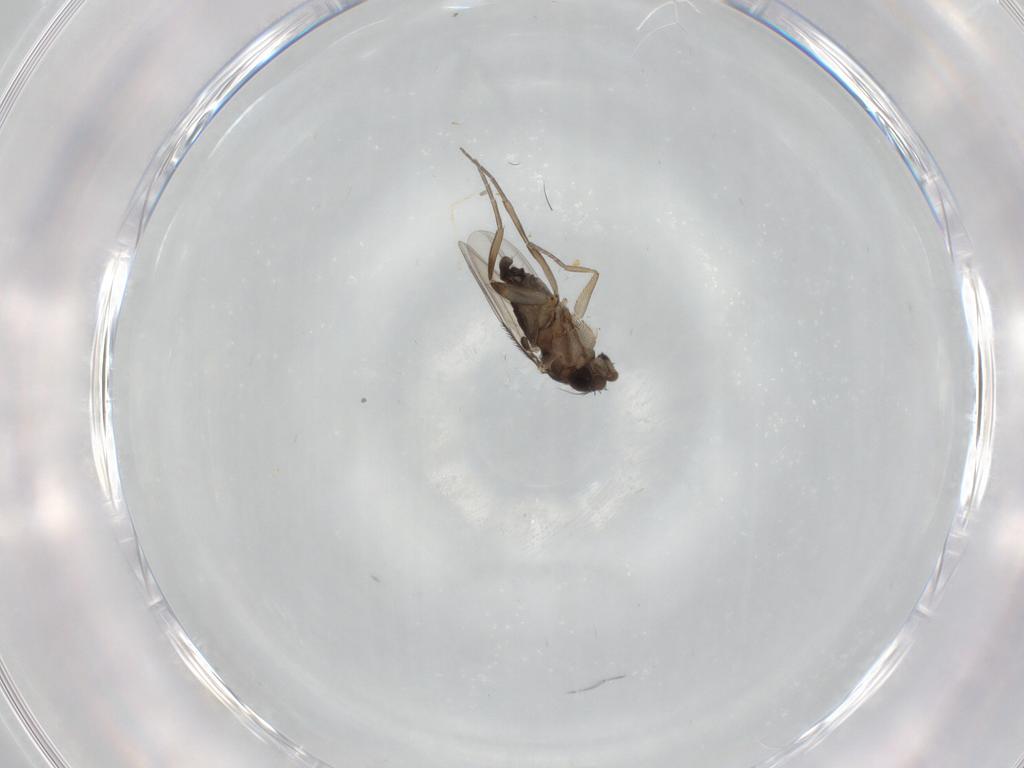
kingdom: Animalia
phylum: Arthropoda
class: Insecta
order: Diptera
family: Phoridae
